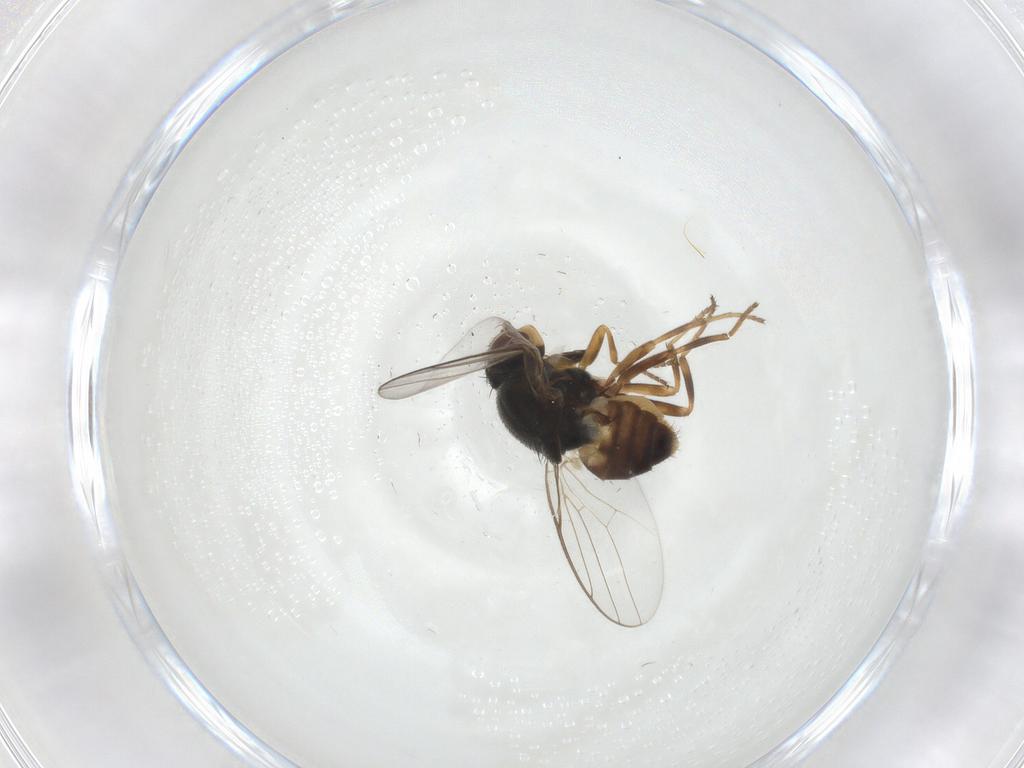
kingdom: Animalia
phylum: Arthropoda
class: Insecta
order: Diptera
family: Chloropidae
